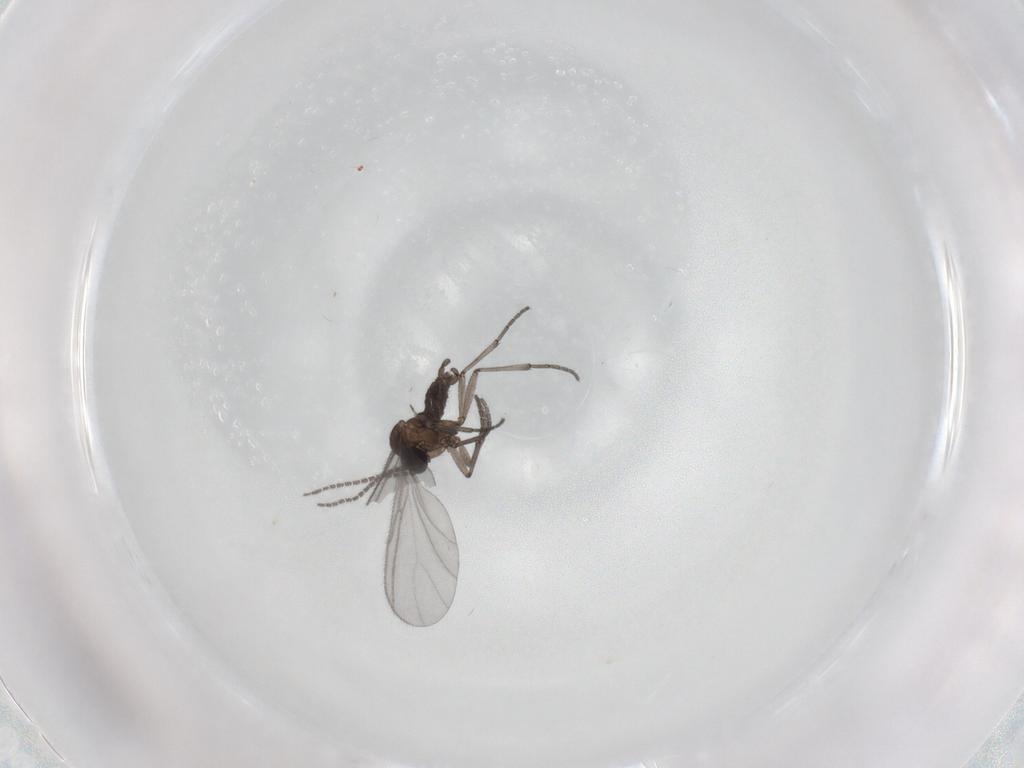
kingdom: Animalia
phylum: Arthropoda
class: Insecta
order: Diptera
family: Sciaridae
